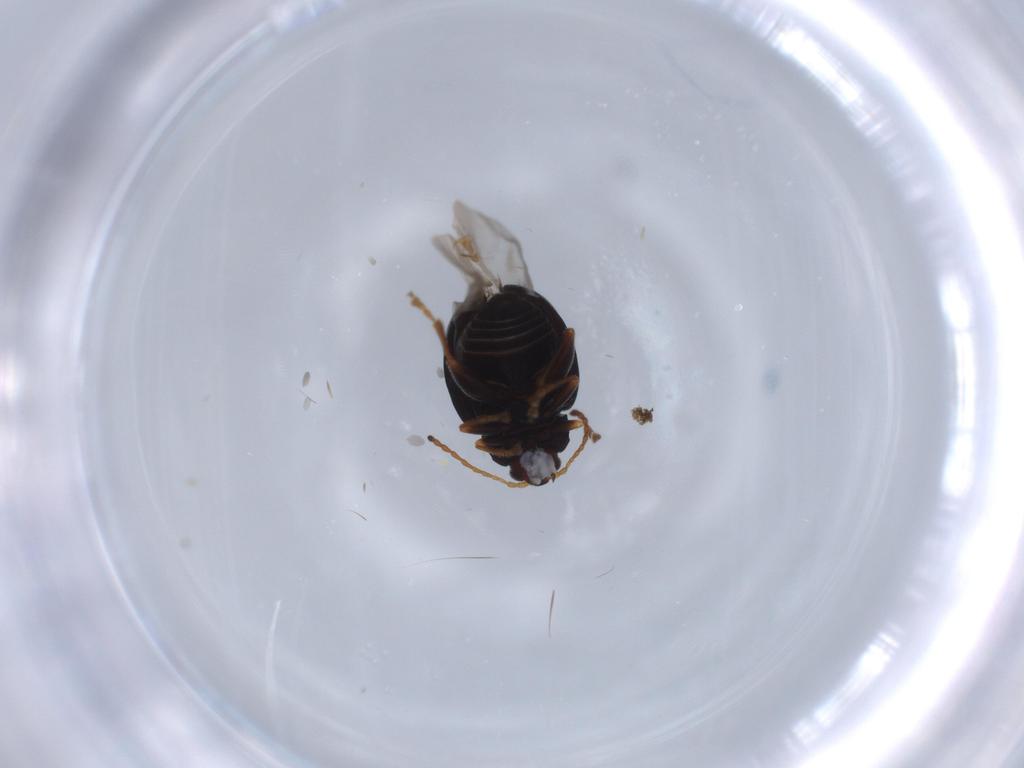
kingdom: Animalia
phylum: Arthropoda
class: Insecta
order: Coleoptera
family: Chrysomelidae
